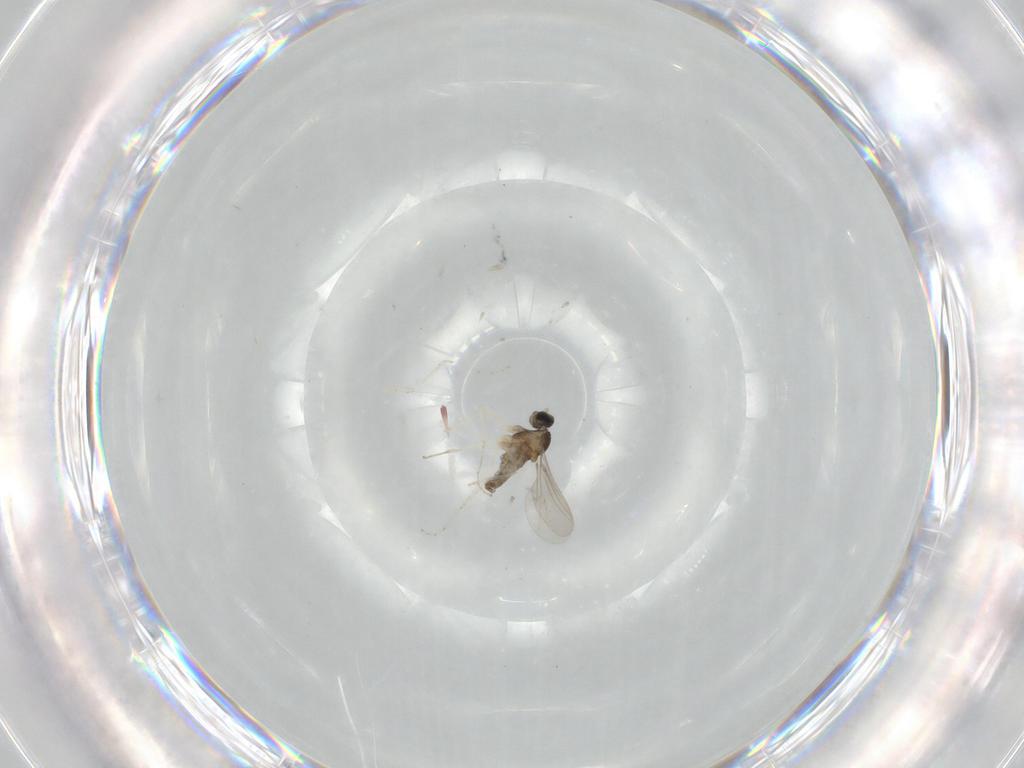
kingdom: Animalia
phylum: Arthropoda
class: Insecta
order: Diptera
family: Cecidomyiidae
